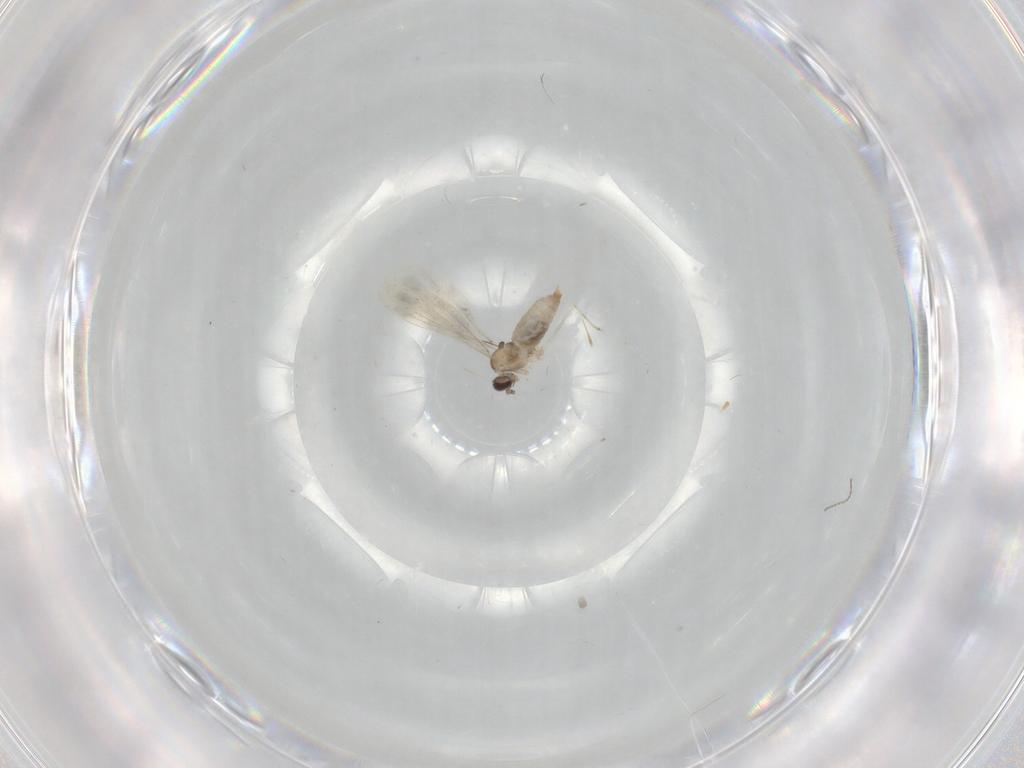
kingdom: Animalia
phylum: Arthropoda
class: Insecta
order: Diptera
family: Cecidomyiidae
